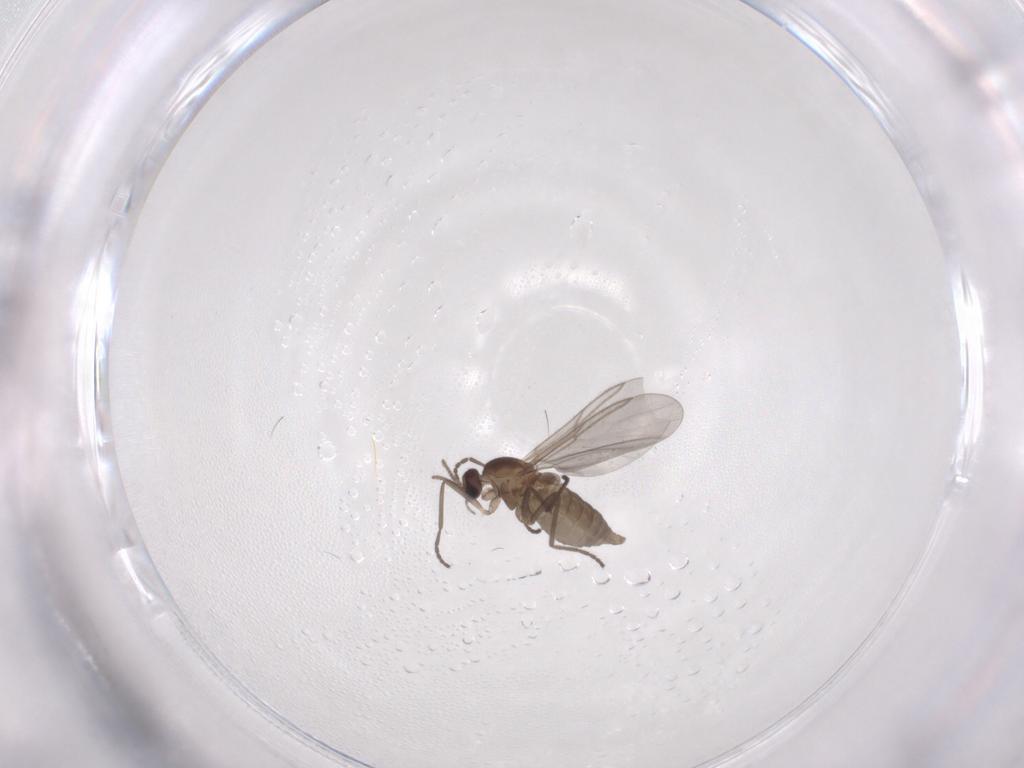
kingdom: Animalia
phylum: Arthropoda
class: Insecta
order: Diptera
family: Cecidomyiidae
